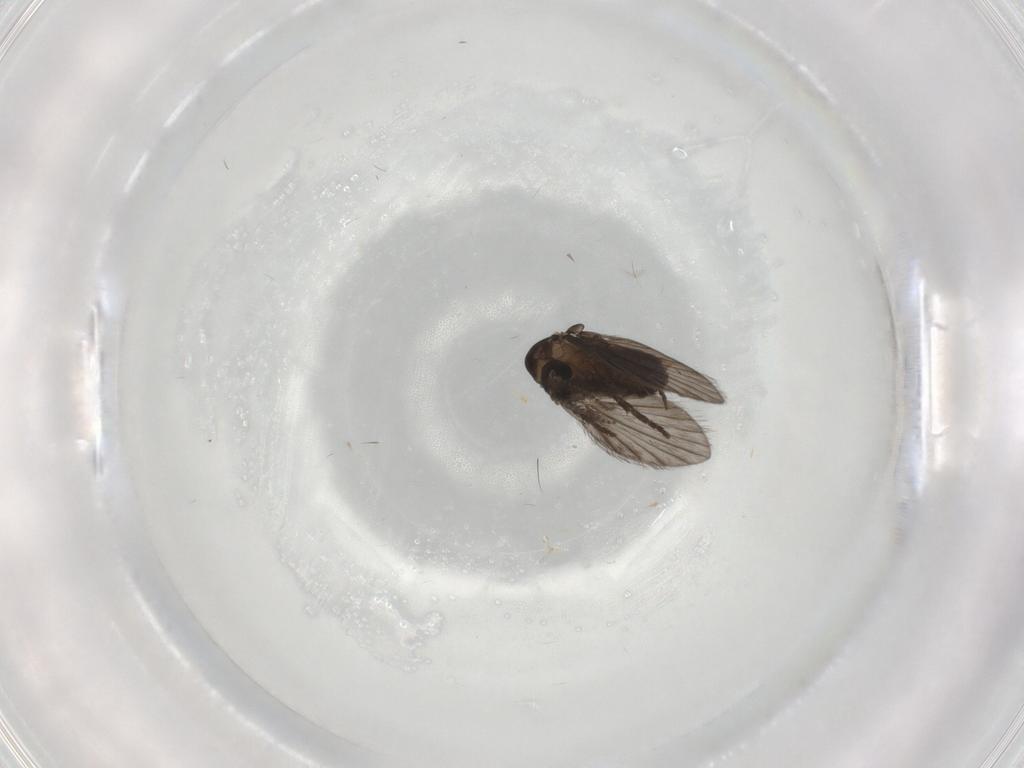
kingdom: Animalia
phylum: Arthropoda
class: Insecta
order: Diptera
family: Psychodidae
